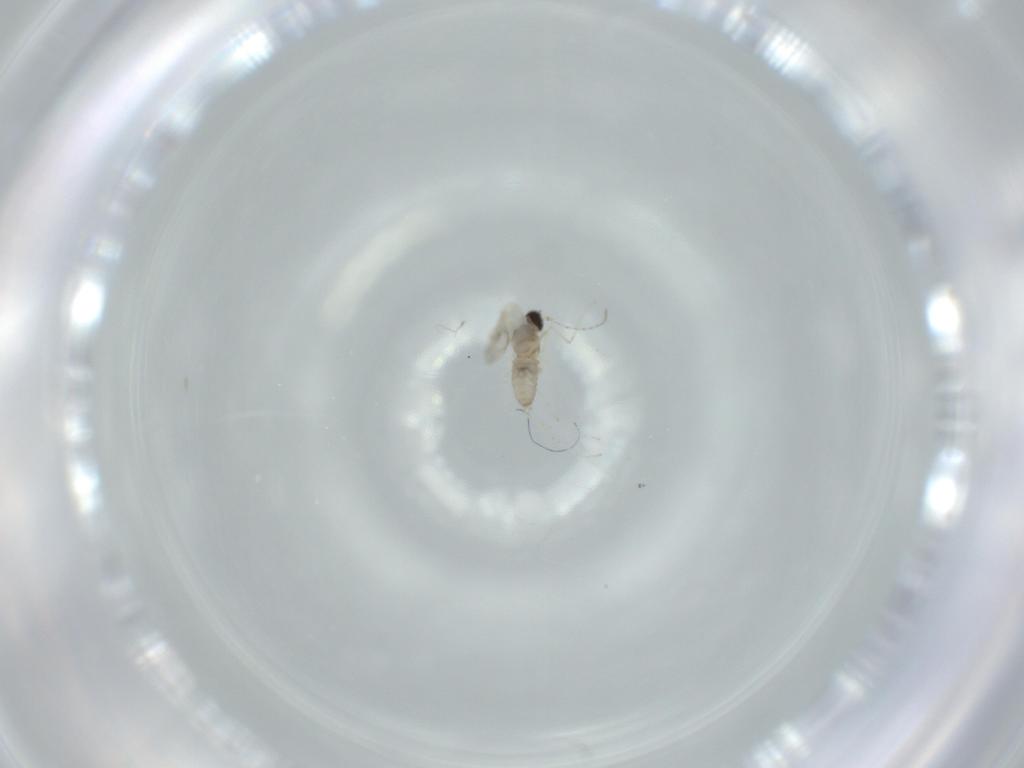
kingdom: Animalia
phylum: Arthropoda
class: Insecta
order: Diptera
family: Cecidomyiidae
